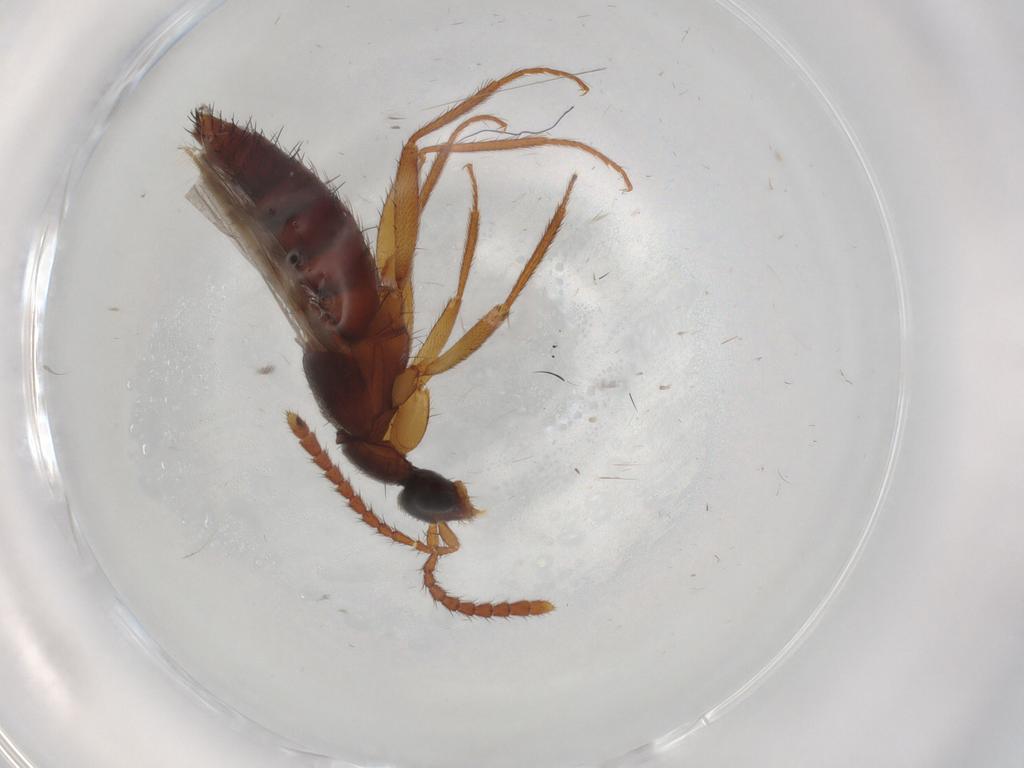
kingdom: Animalia
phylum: Arthropoda
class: Insecta
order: Coleoptera
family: Staphylinidae
